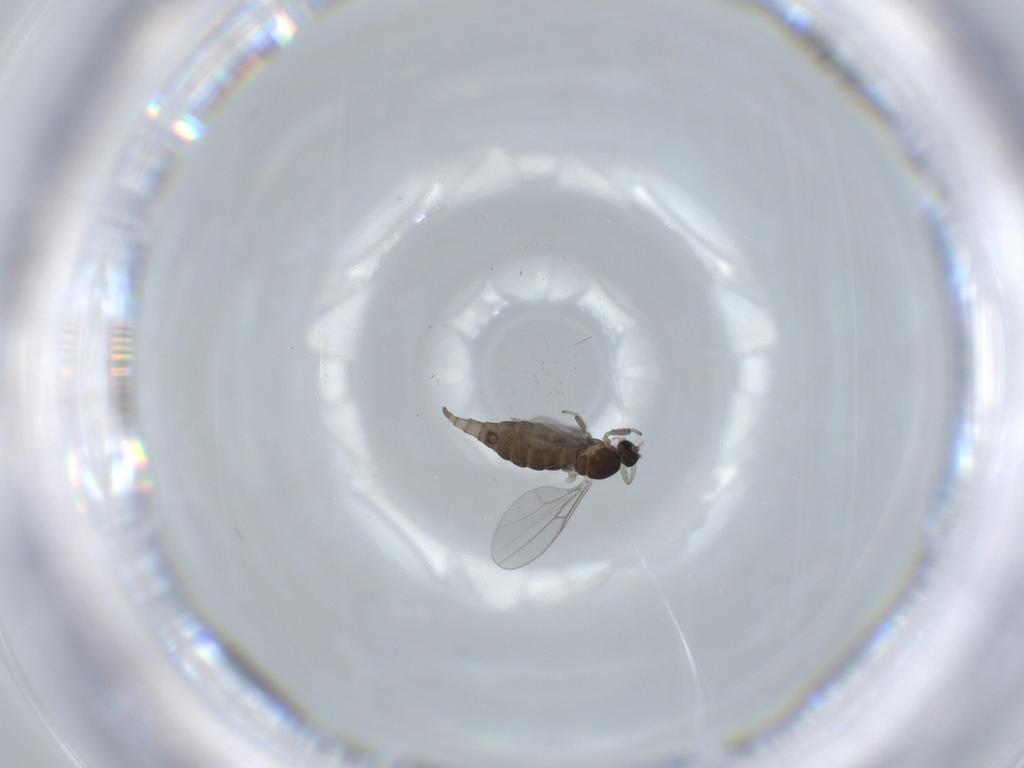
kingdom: Animalia
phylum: Arthropoda
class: Insecta
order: Diptera
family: Cecidomyiidae
